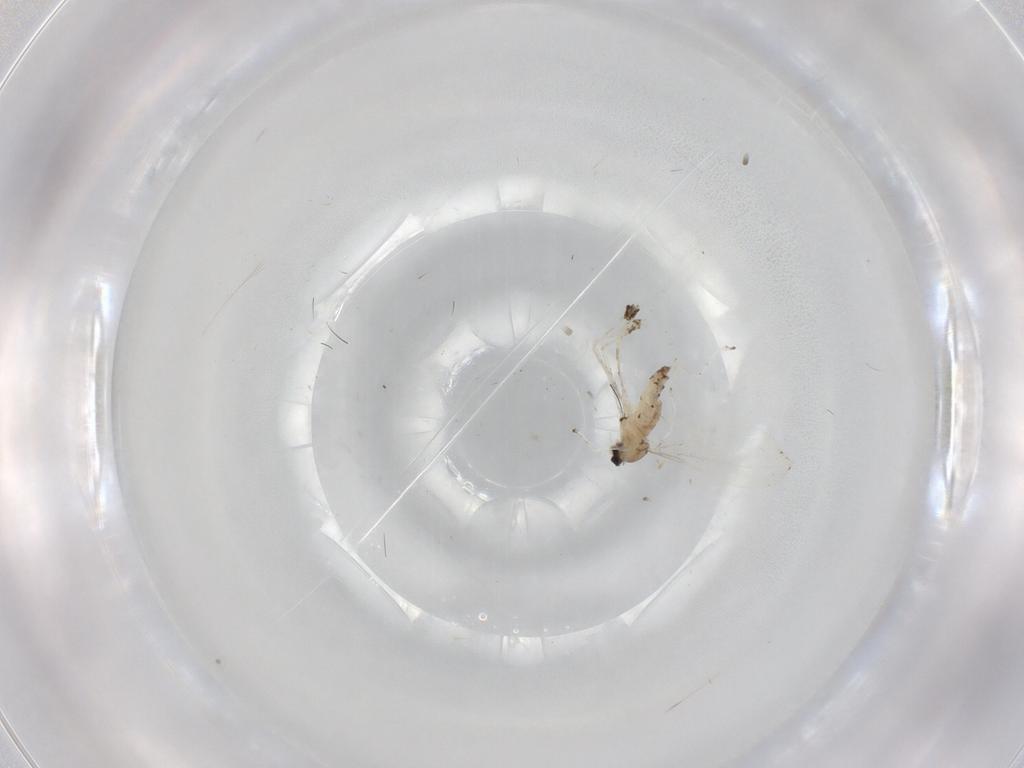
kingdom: Animalia
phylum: Arthropoda
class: Insecta
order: Diptera
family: Cecidomyiidae
